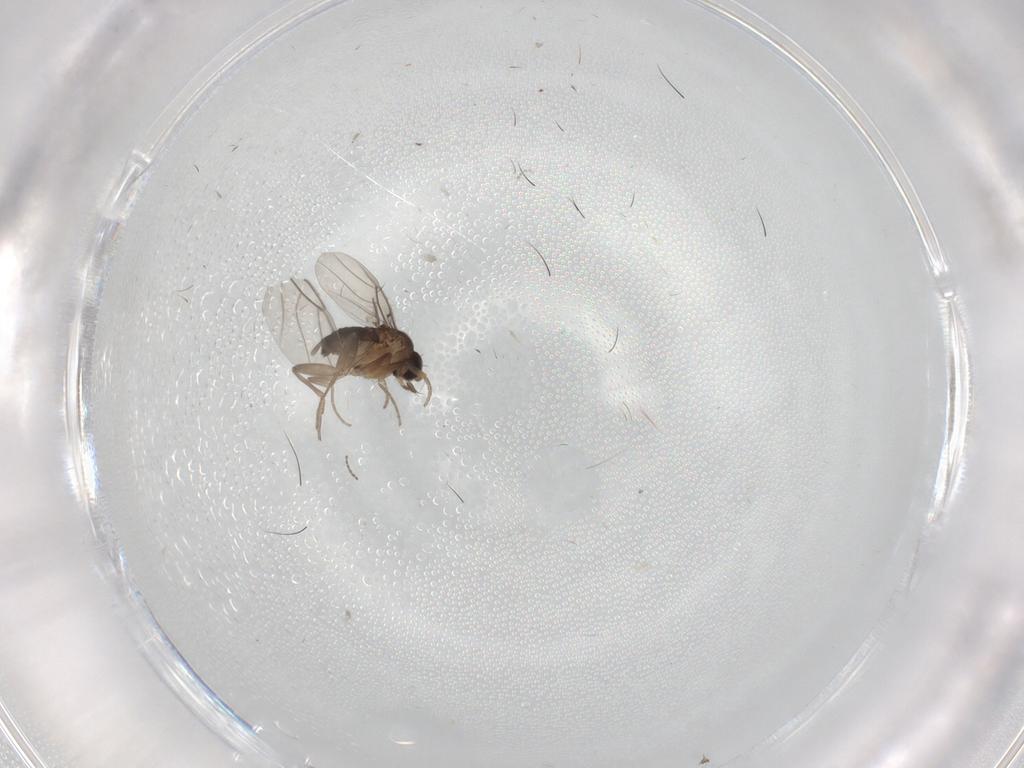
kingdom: Animalia
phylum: Arthropoda
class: Insecta
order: Diptera
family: Phoridae
